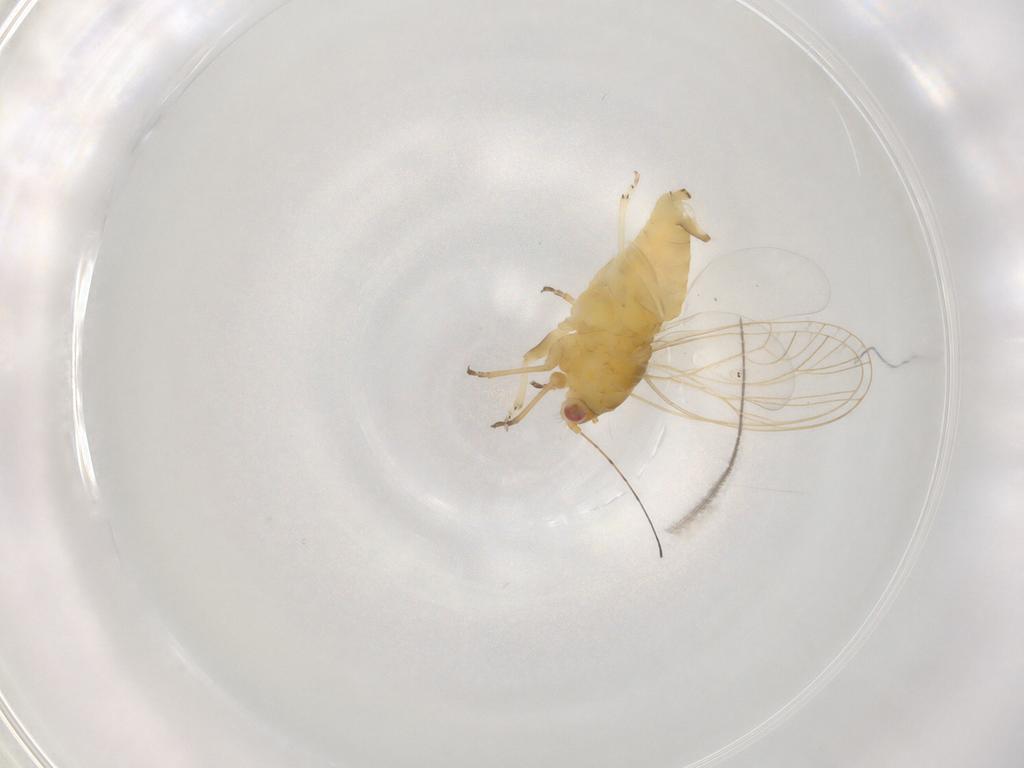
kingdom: Animalia
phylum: Arthropoda
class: Insecta
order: Hemiptera
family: Psyllidae
